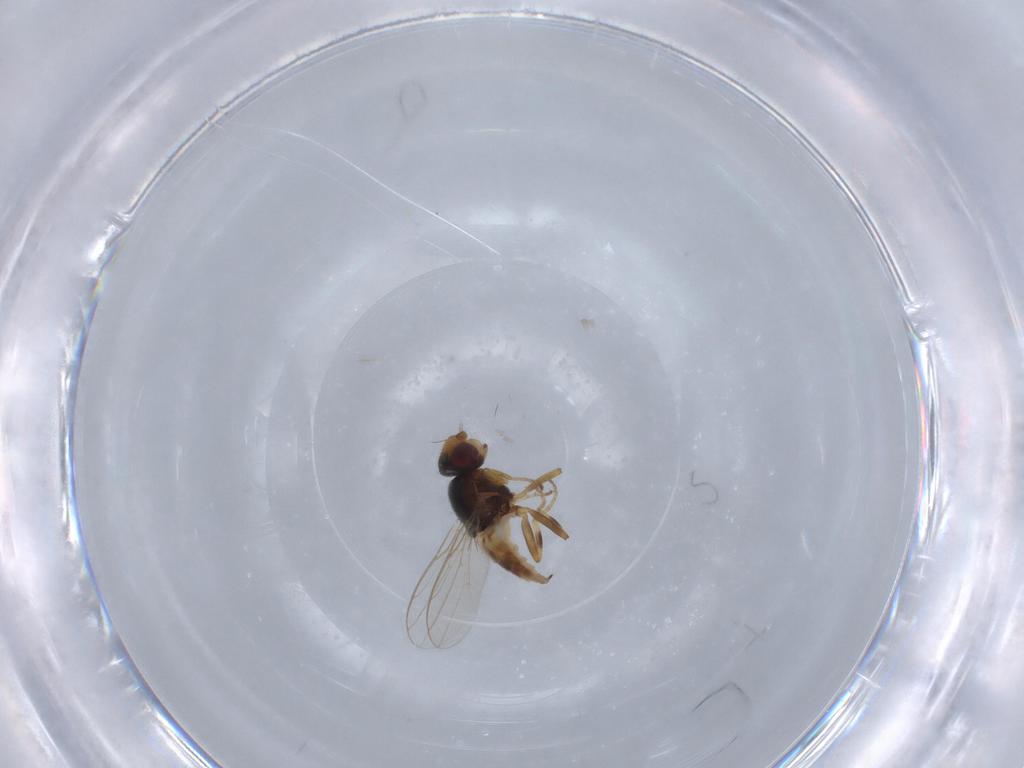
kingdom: Animalia
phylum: Arthropoda
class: Insecta
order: Diptera
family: Chloropidae
